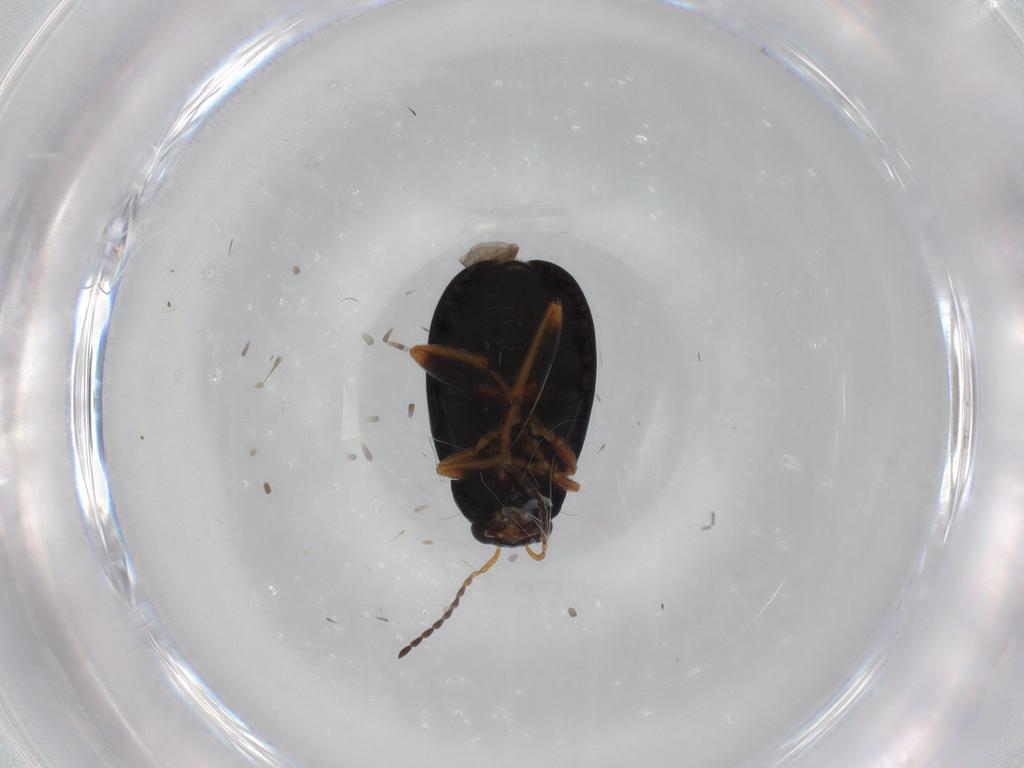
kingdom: Animalia
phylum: Arthropoda
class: Insecta
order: Coleoptera
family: Chrysomelidae
